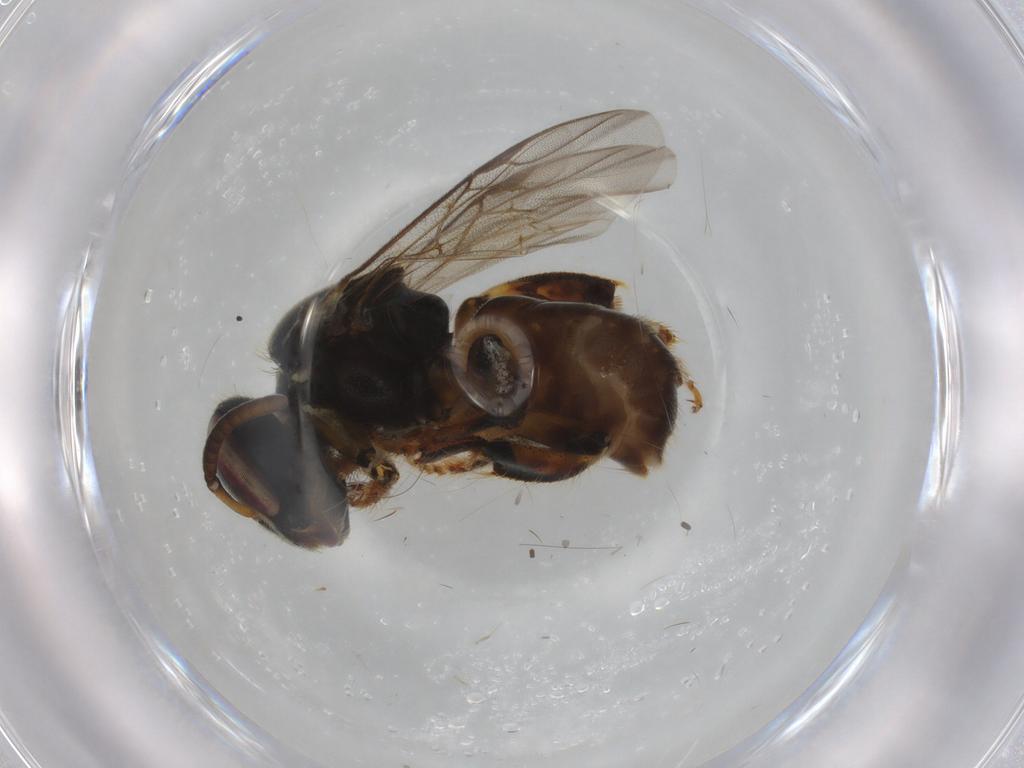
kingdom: Animalia
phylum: Arthropoda
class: Insecta
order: Hymenoptera
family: Apidae
